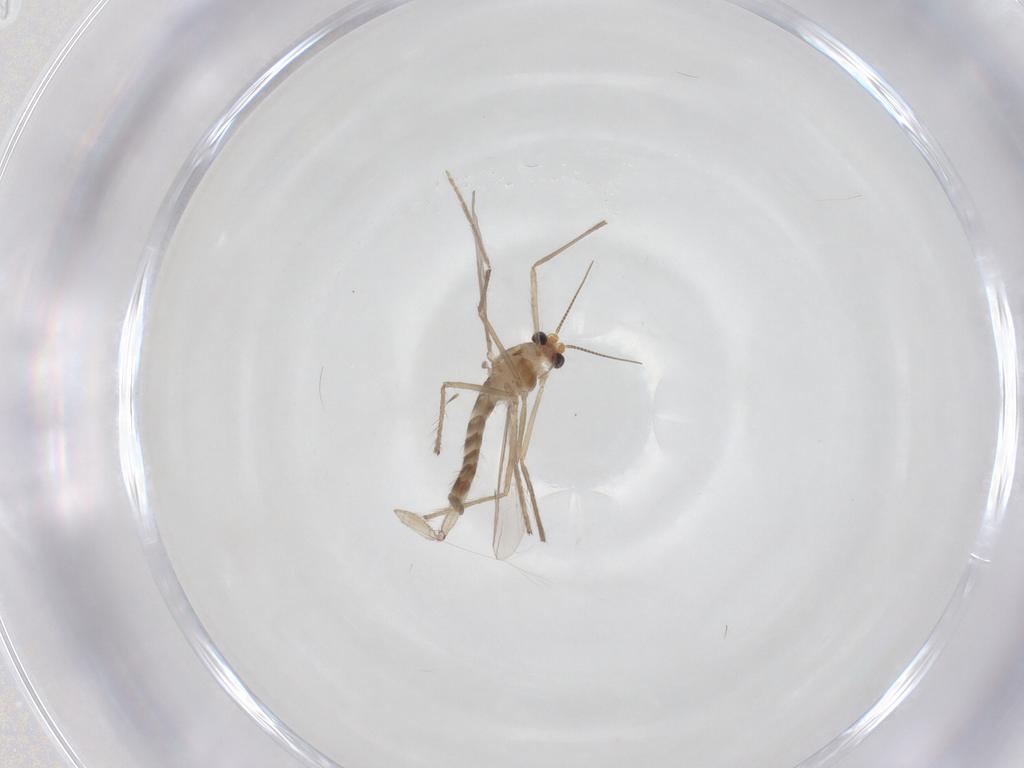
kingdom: Animalia
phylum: Arthropoda
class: Insecta
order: Diptera
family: Chironomidae
